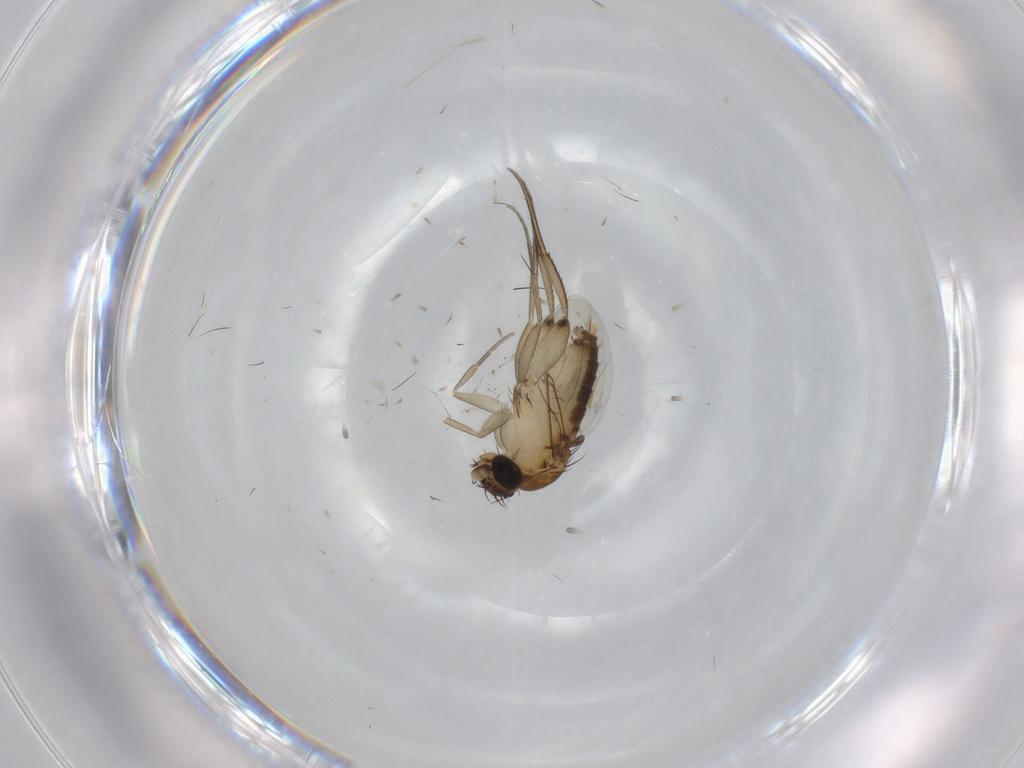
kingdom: Animalia
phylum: Arthropoda
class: Insecta
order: Diptera
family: Phoridae
